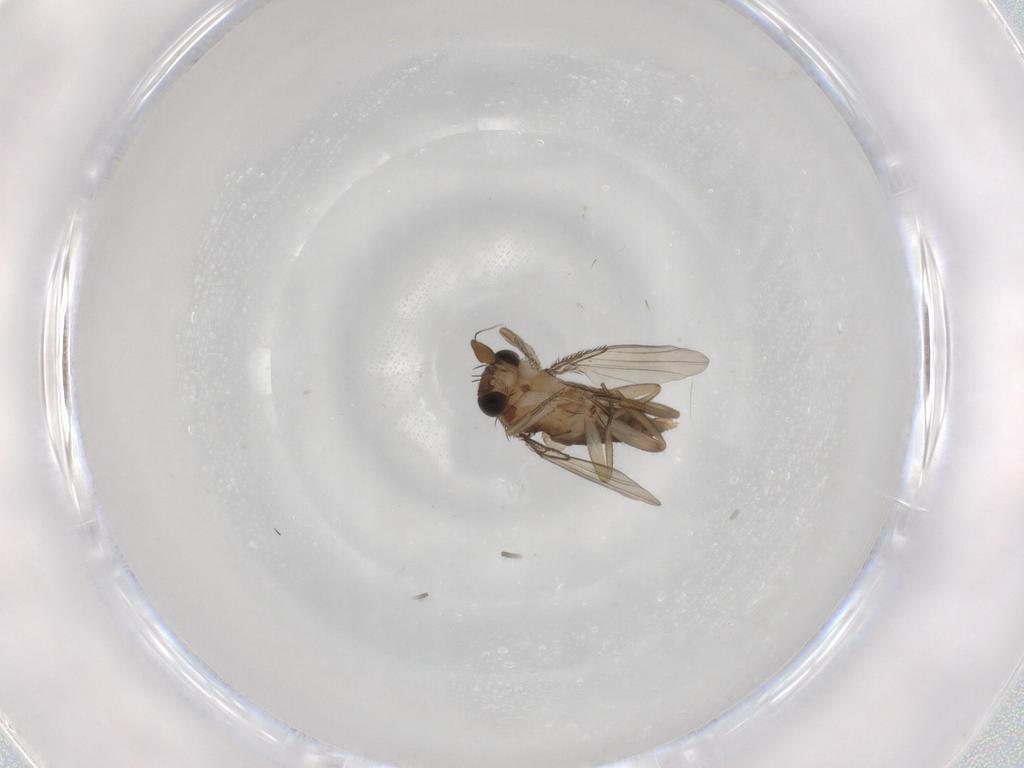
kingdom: Animalia
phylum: Arthropoda
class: Insecta
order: Diptera
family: Phoridae
